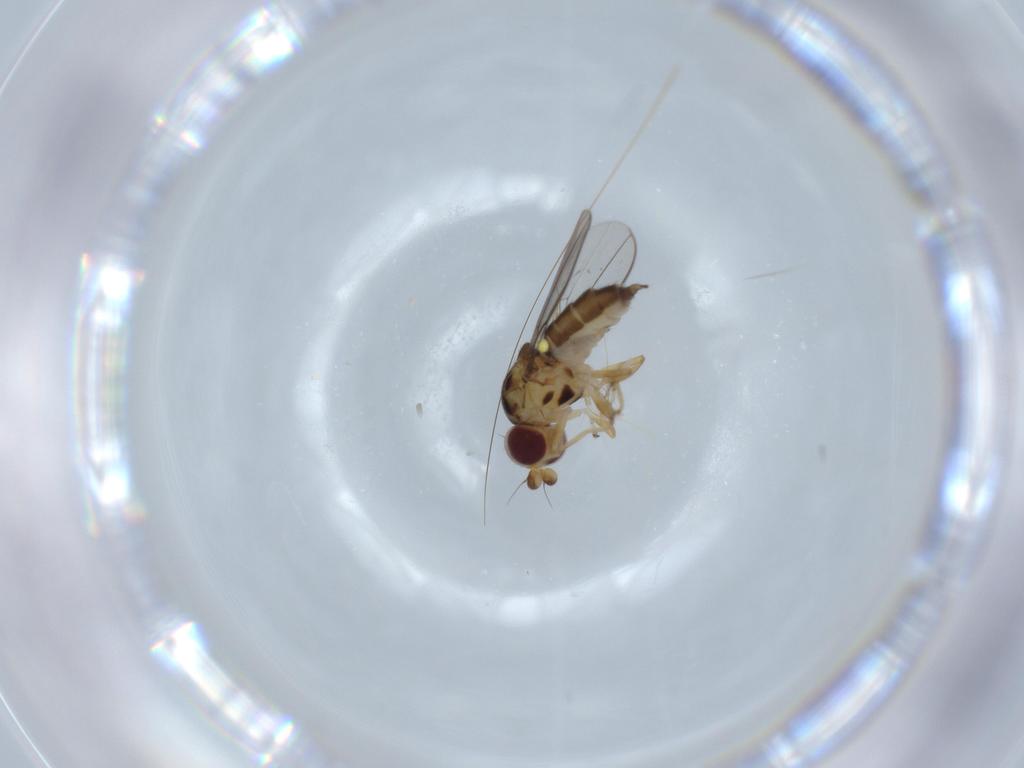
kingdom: Animalia
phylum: Arthropoda
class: Insecta
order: Diptera
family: Chloropidae
